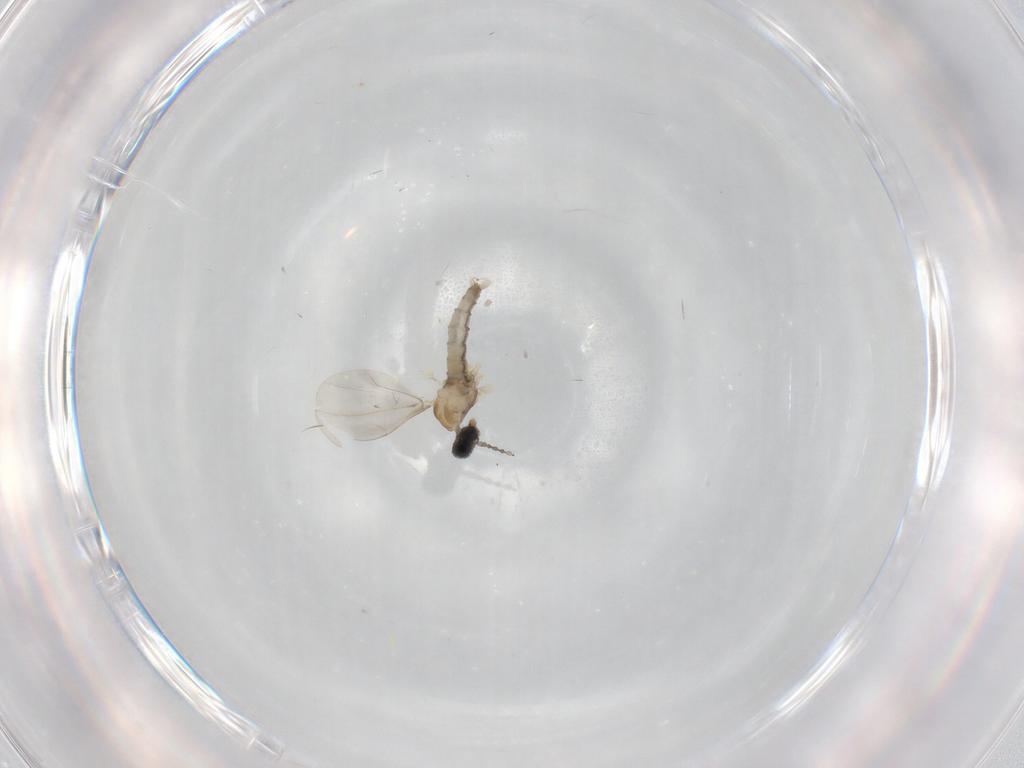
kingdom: Animalia
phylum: Arthropoda
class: Insecta
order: Diptera
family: Cecidomyiidae
